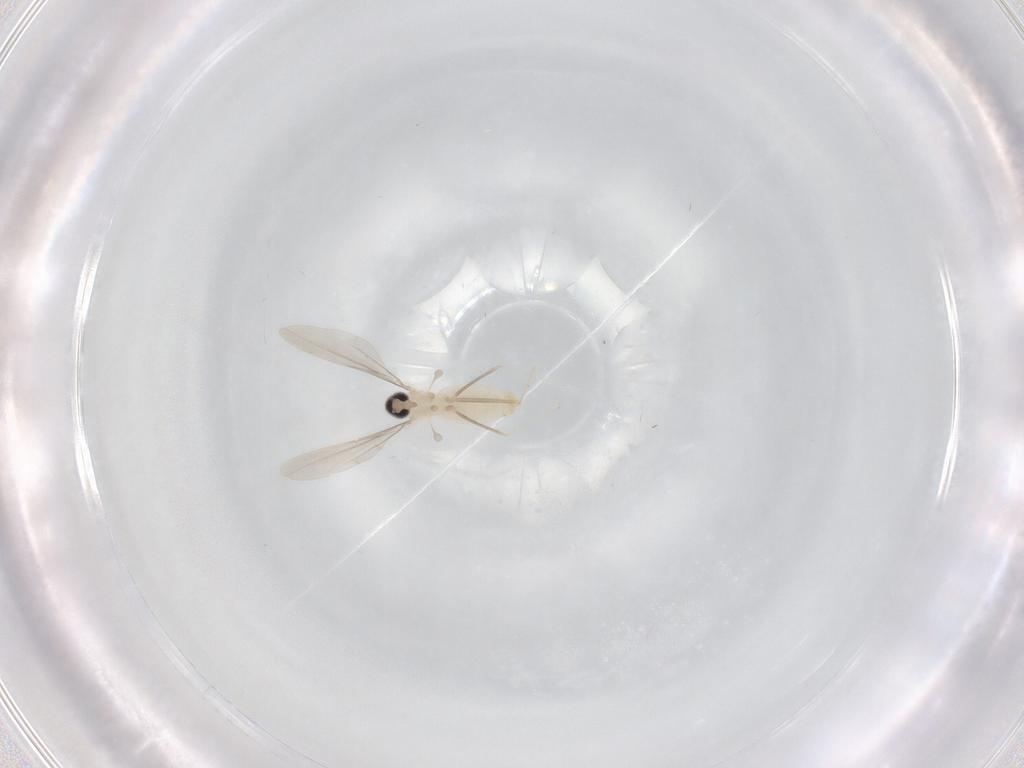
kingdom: Animalia
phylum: Arthropoda
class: Insecta
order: Diptera
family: Cecidomyiidae
